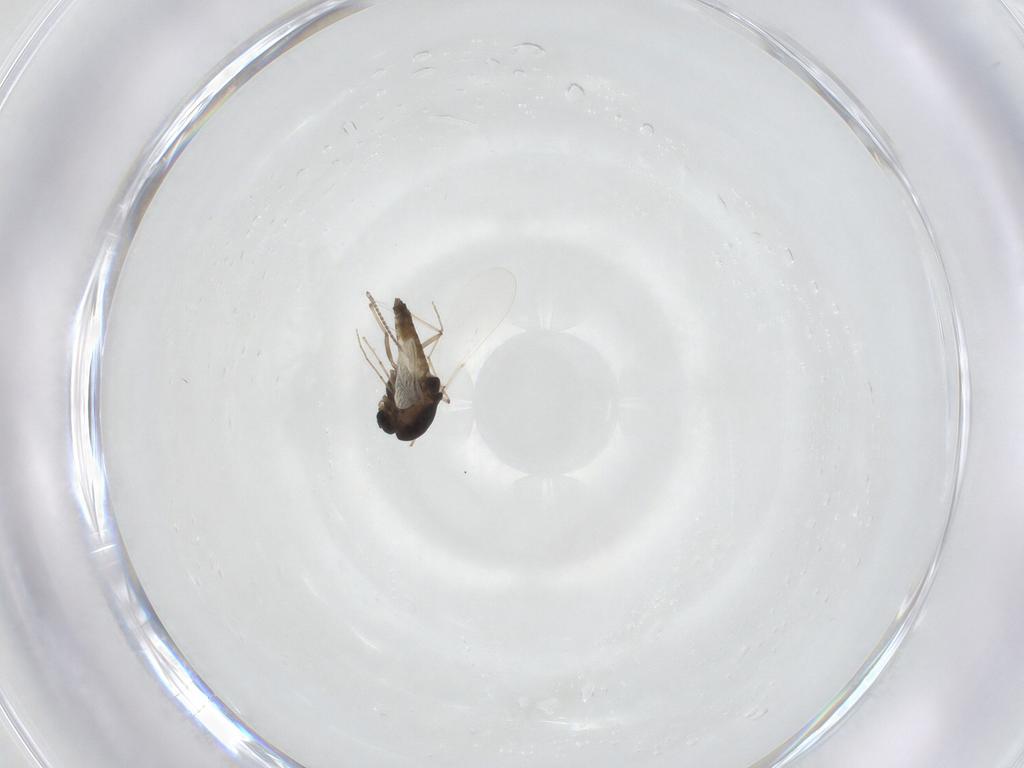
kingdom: Animalia
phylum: Arthropoda
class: Insecta
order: Diptera
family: Chironomidae
